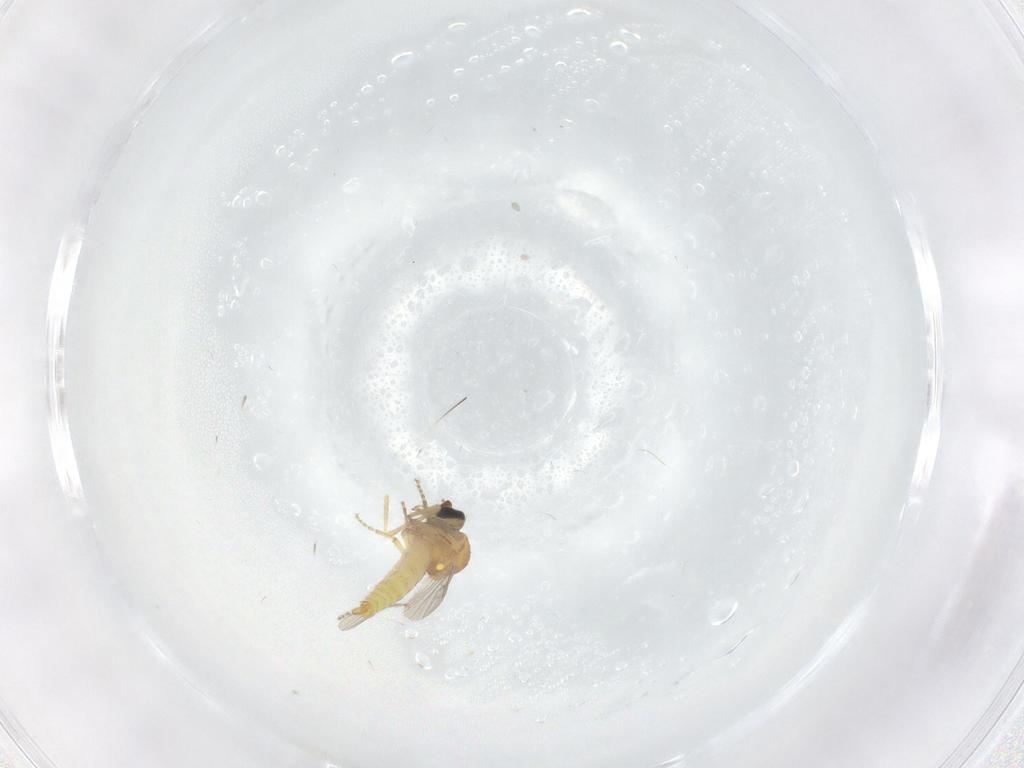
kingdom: Animalia
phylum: Arthropoda
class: Insecta
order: Diptera
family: Ceratopogonidae
